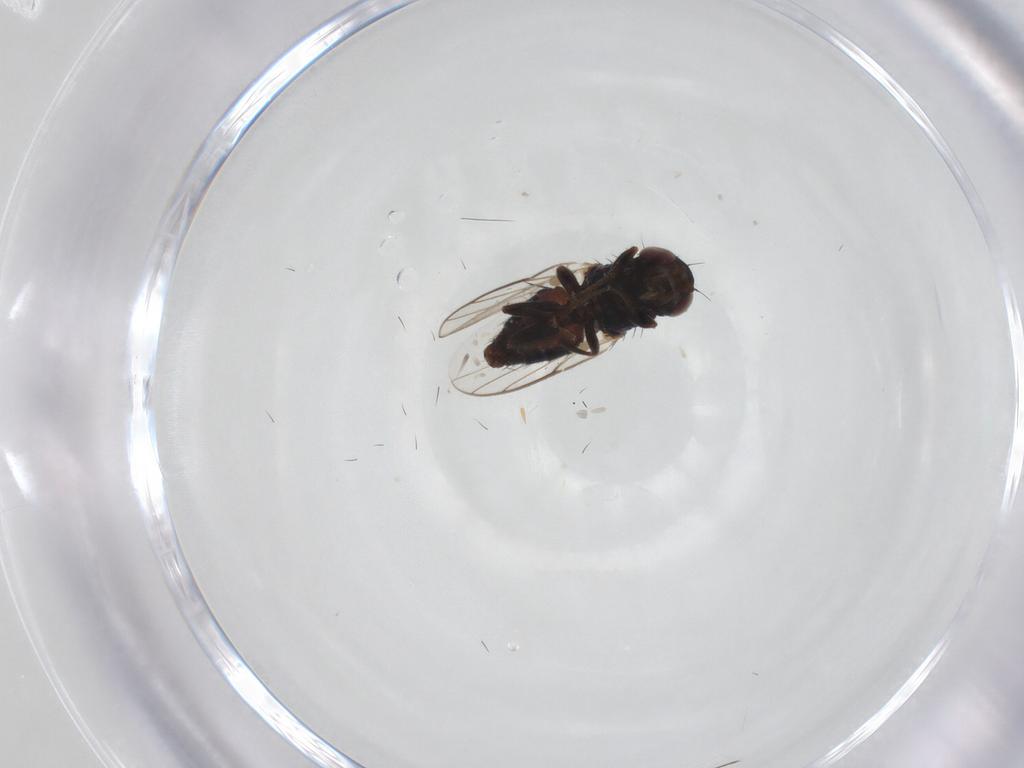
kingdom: Animalia
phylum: Arthropoda
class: Insecta
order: Diptera
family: Chloropidae
